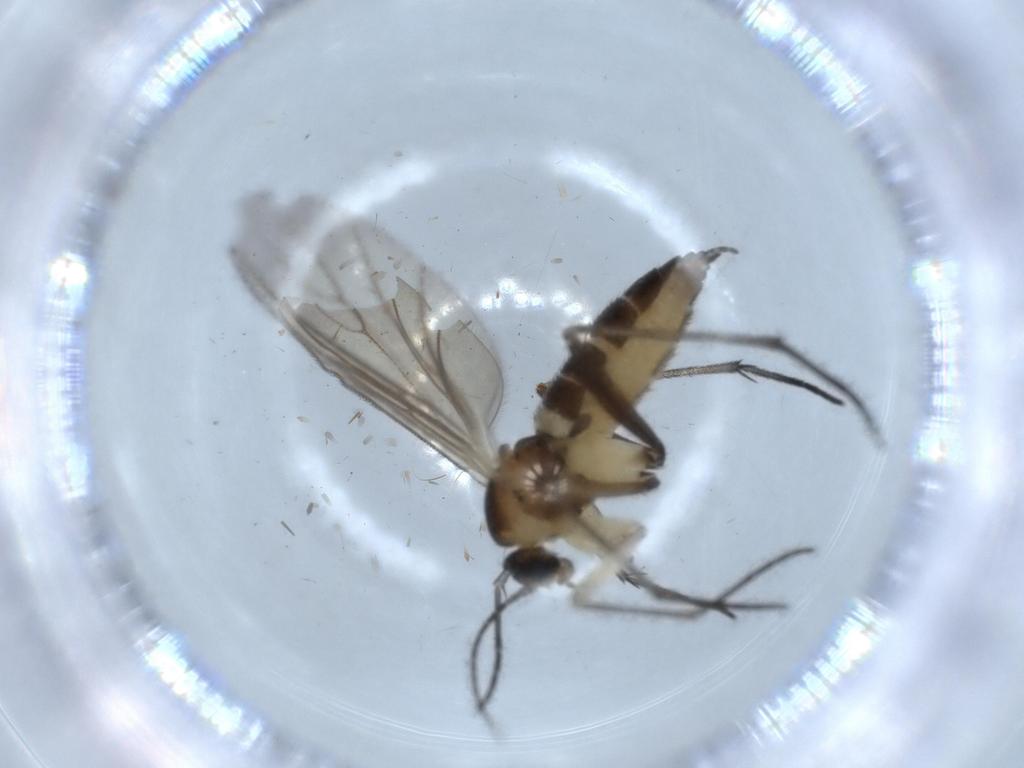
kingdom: Animalia
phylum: Arthropoda
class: Insecta
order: Diptera
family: Sciaridae
